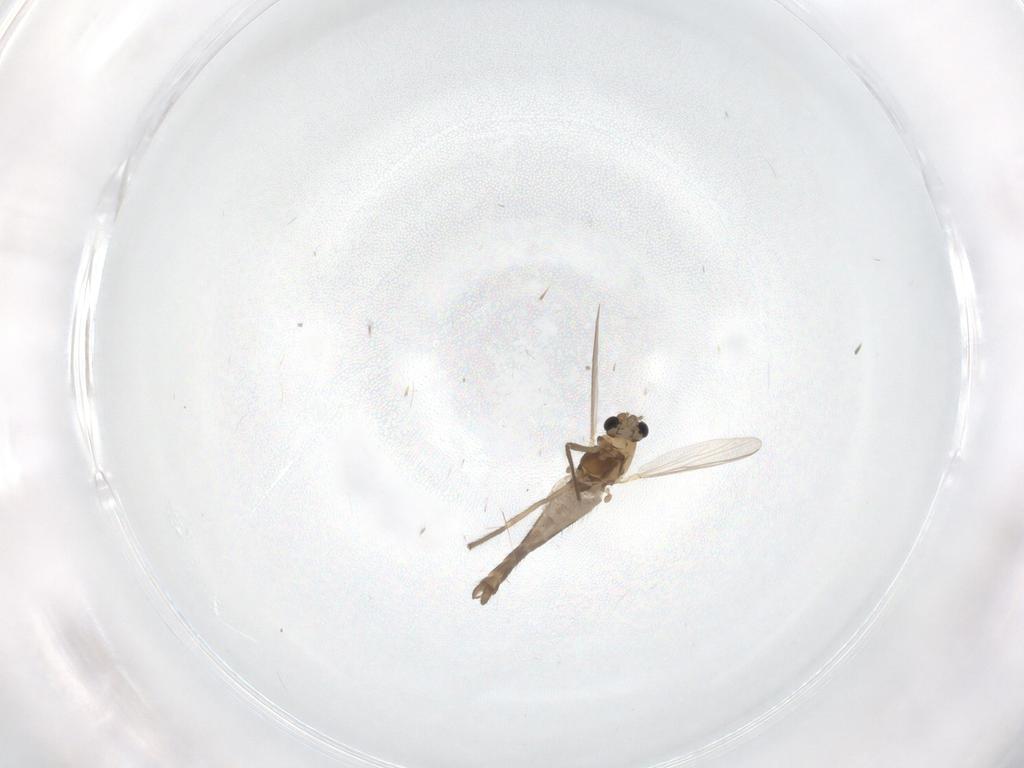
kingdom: Animalia
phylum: Arthropoda
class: Insecta
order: Diptera
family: Chironomidae
